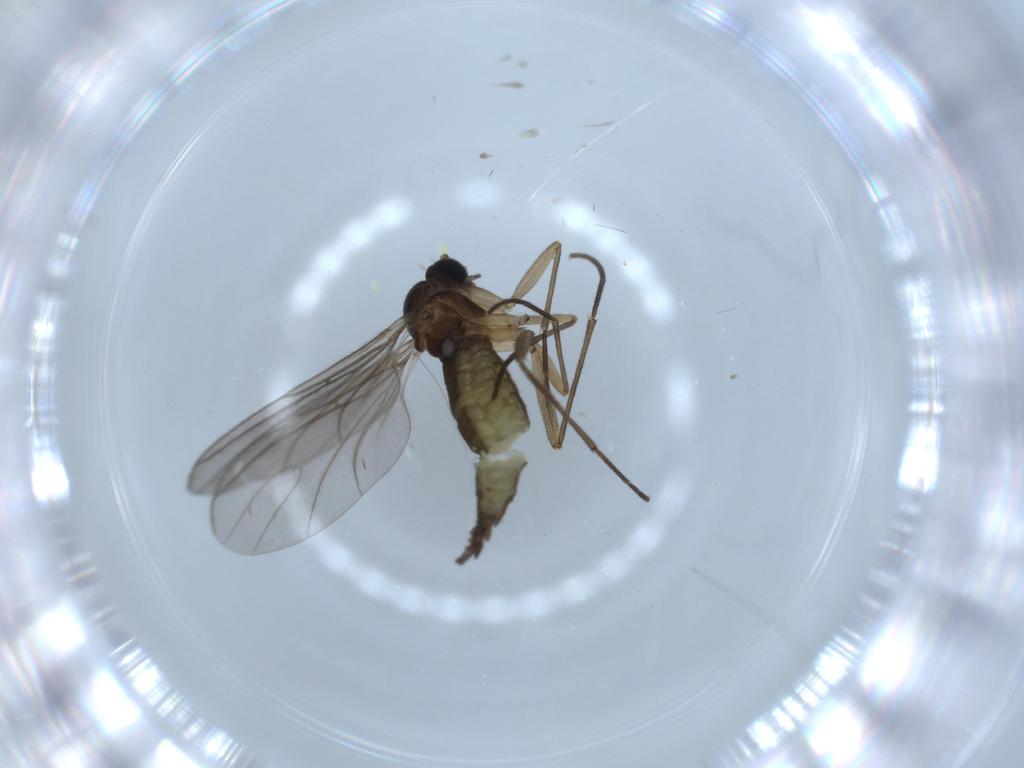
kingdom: Animalia
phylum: Arthropoda
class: Insecta
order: Diptera
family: Sciaridae
